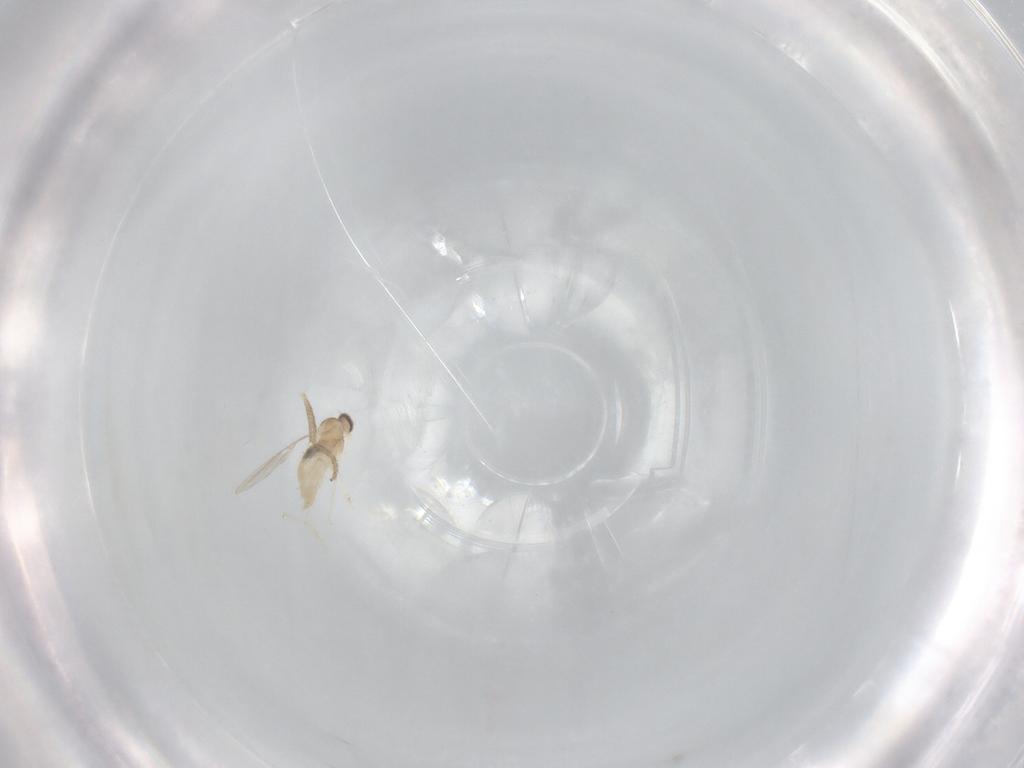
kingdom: Animalia
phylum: Arthropoda
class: Insecta
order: Diptera
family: Cecidomyiidae
